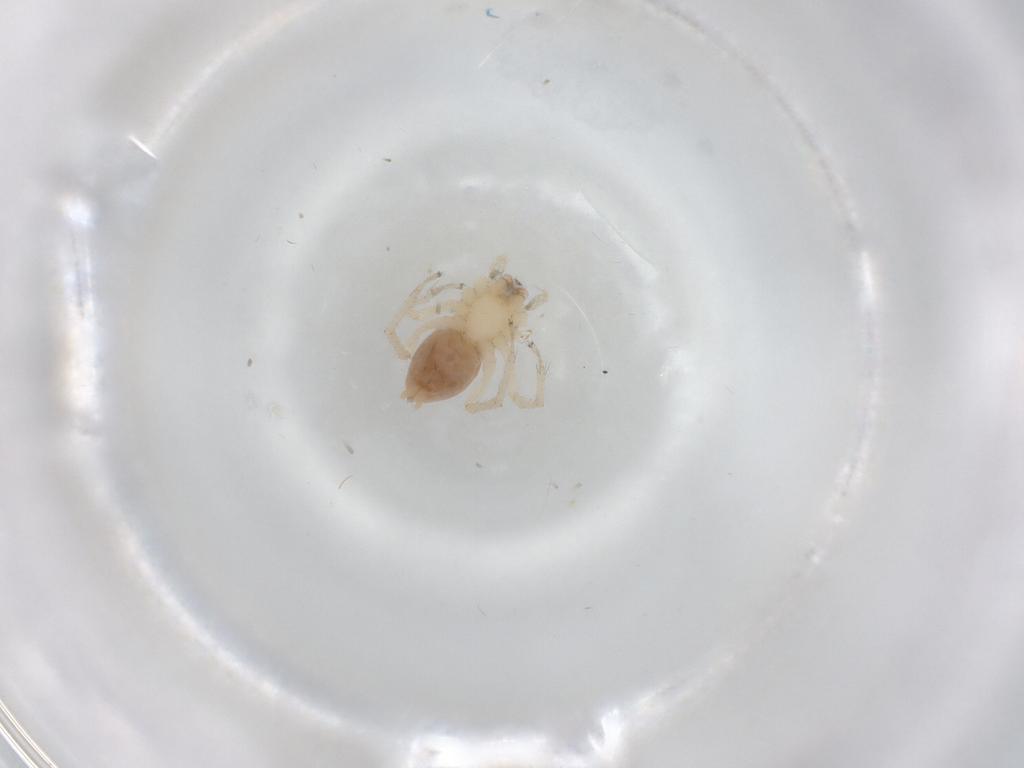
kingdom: Animalia
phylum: Arthropoda
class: Arachnida
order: Araneae
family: Anyphaenidae
